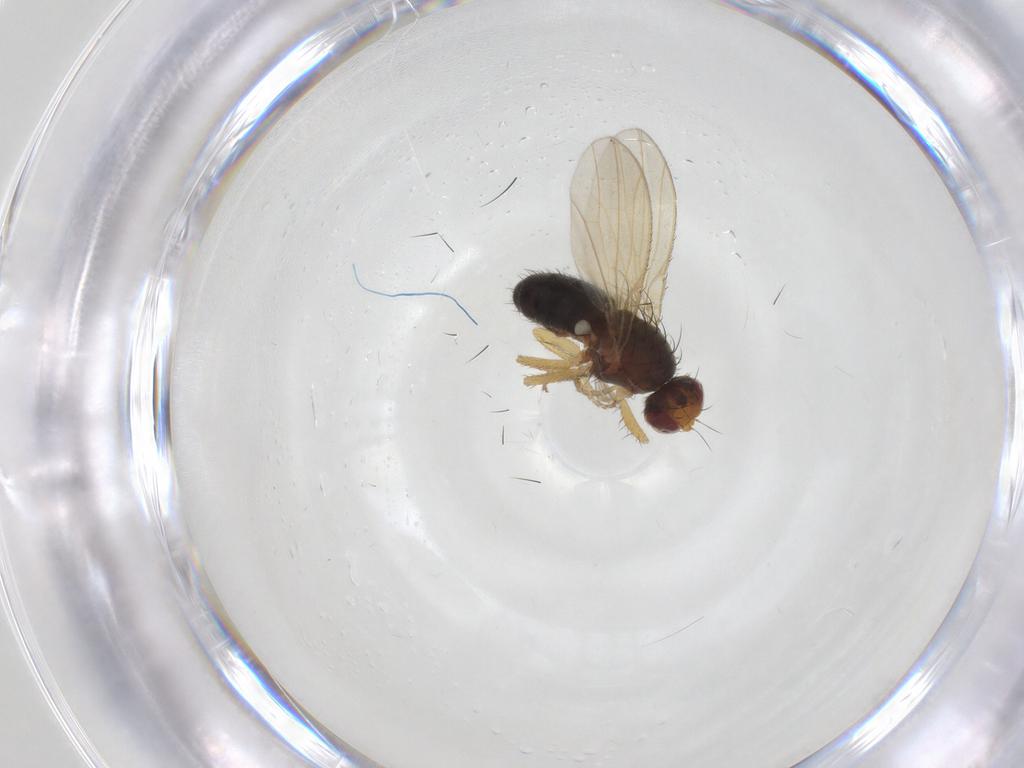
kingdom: Animalia
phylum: Arthropoda
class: Insecta
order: Diptera
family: Heleomyzidae
